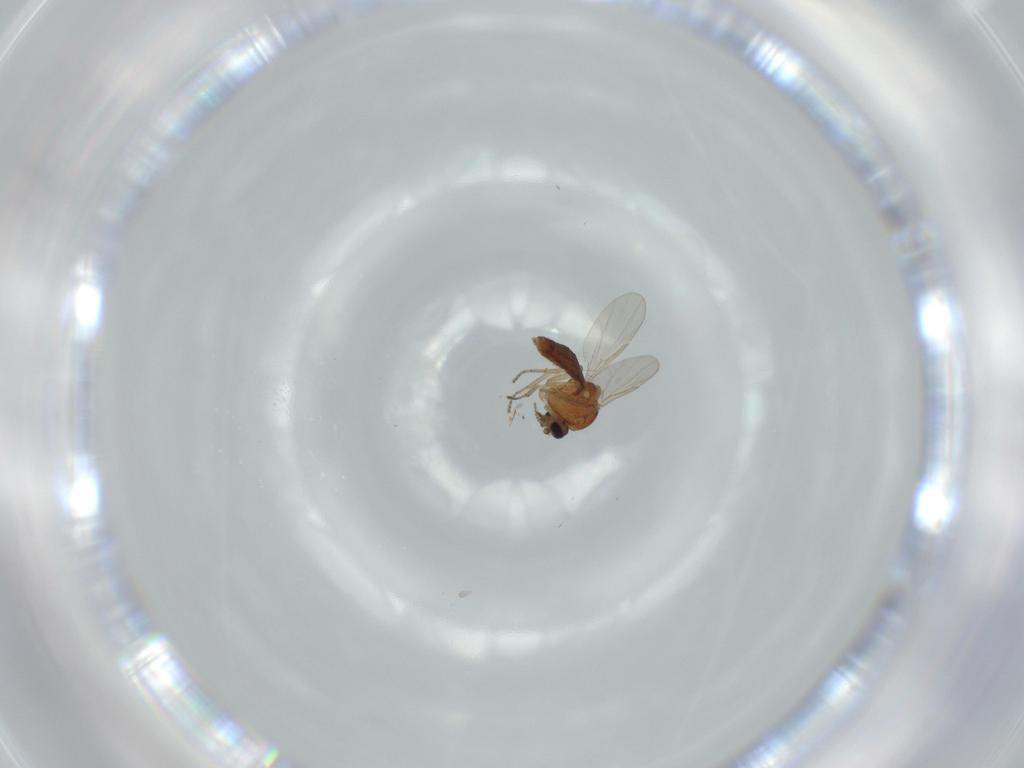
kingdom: Animalia
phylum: Arthropoda
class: Insecta
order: Diptera
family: Ceratopogonidae
